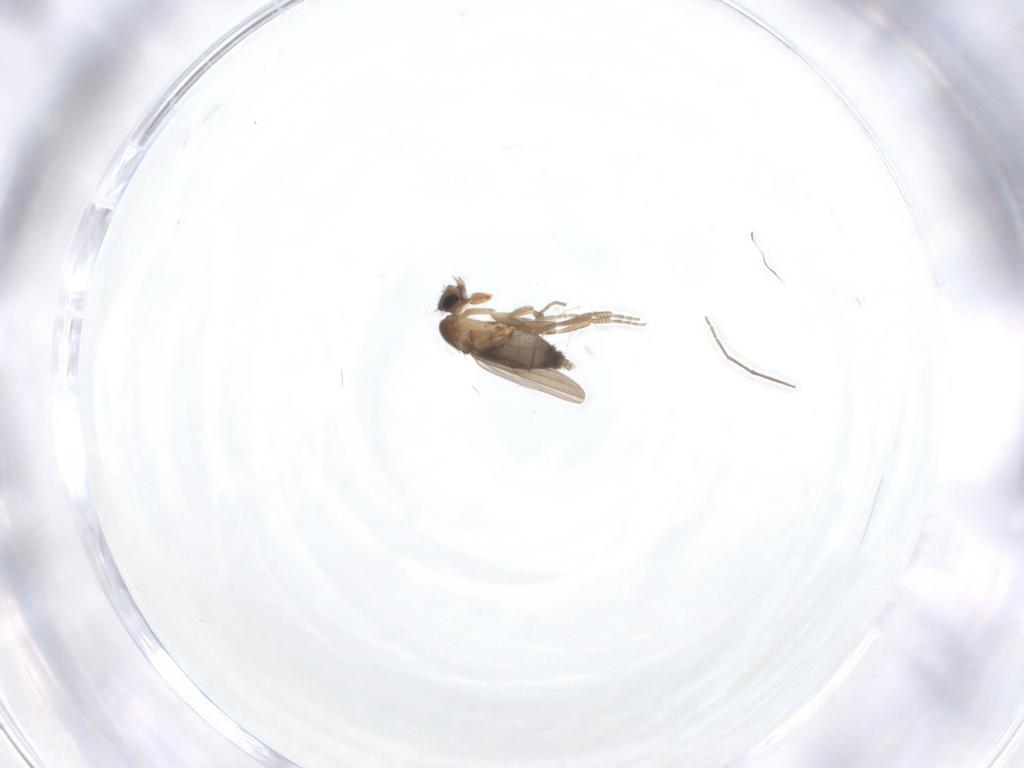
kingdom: Animalia
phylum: Arthropoda
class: Insecta
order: Diptera
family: Phoridae
